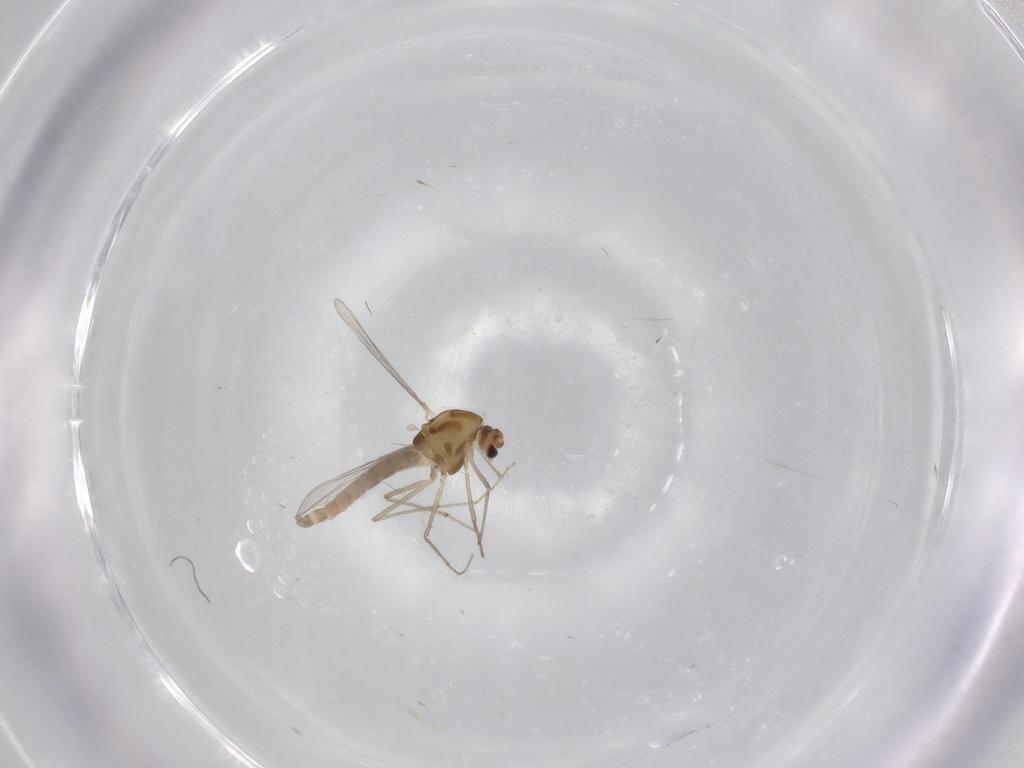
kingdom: Animalia
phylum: Arthropoda
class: Insecta
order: Diptera
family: Chironomidae
